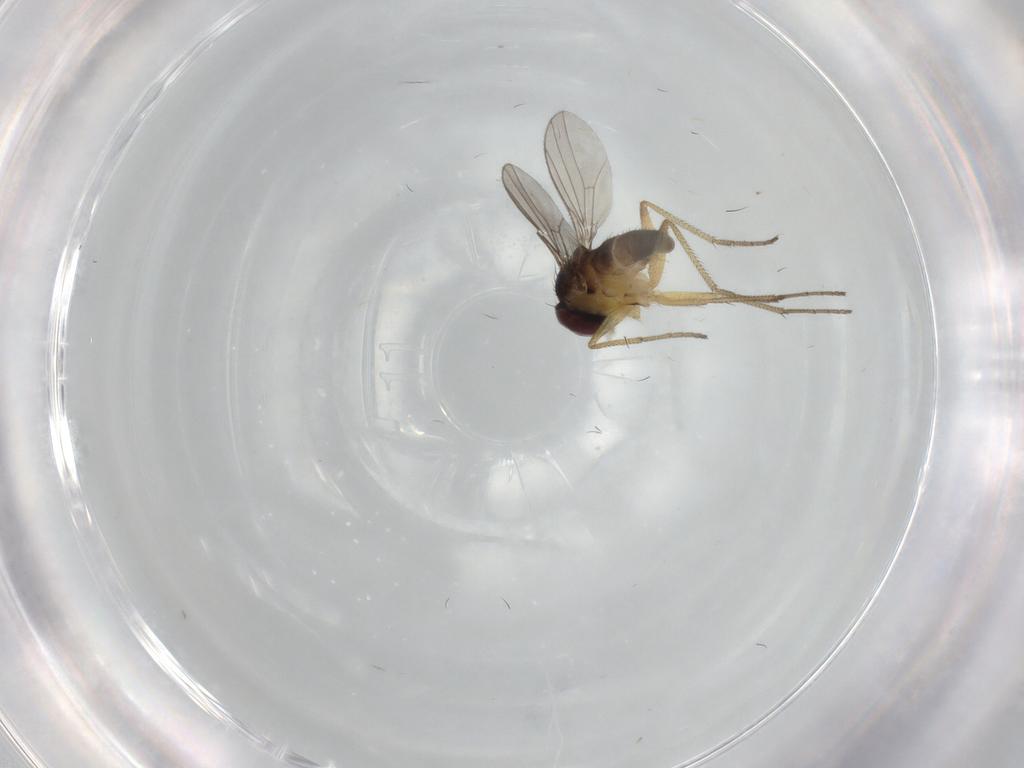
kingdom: Animalia
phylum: Arthropoda
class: Insecta
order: Diptera
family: Dolichopodidae
